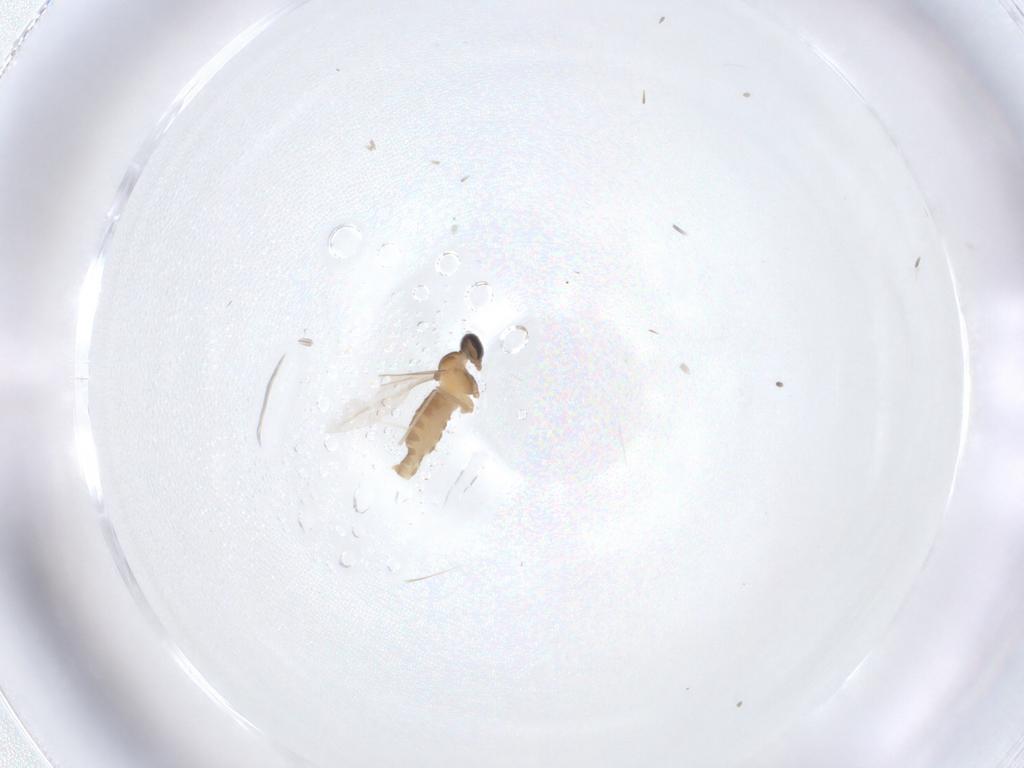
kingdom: Animalia
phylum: Arthropoda
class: Insecta
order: Diptera
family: Cecidomyiidae
